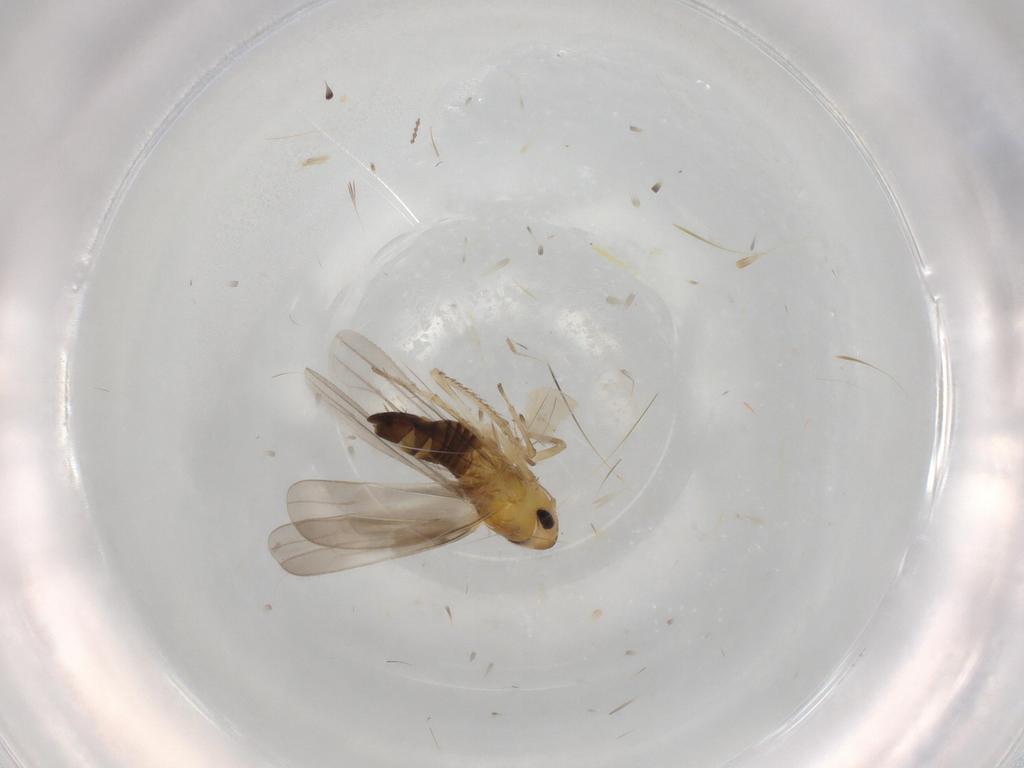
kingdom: Animalia
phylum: Arthropoda
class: Insecta
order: Hemiptera
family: Cicadellidae
